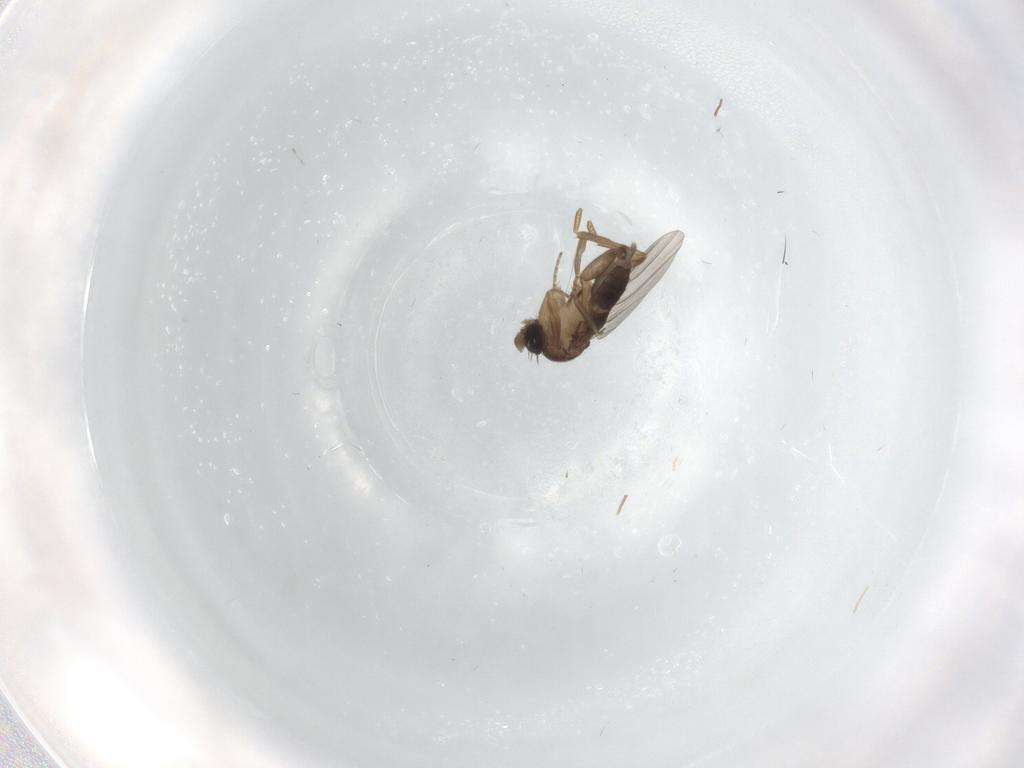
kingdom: Animalia
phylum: Arthropoda
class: Insecta
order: Diptera
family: Phoridae
